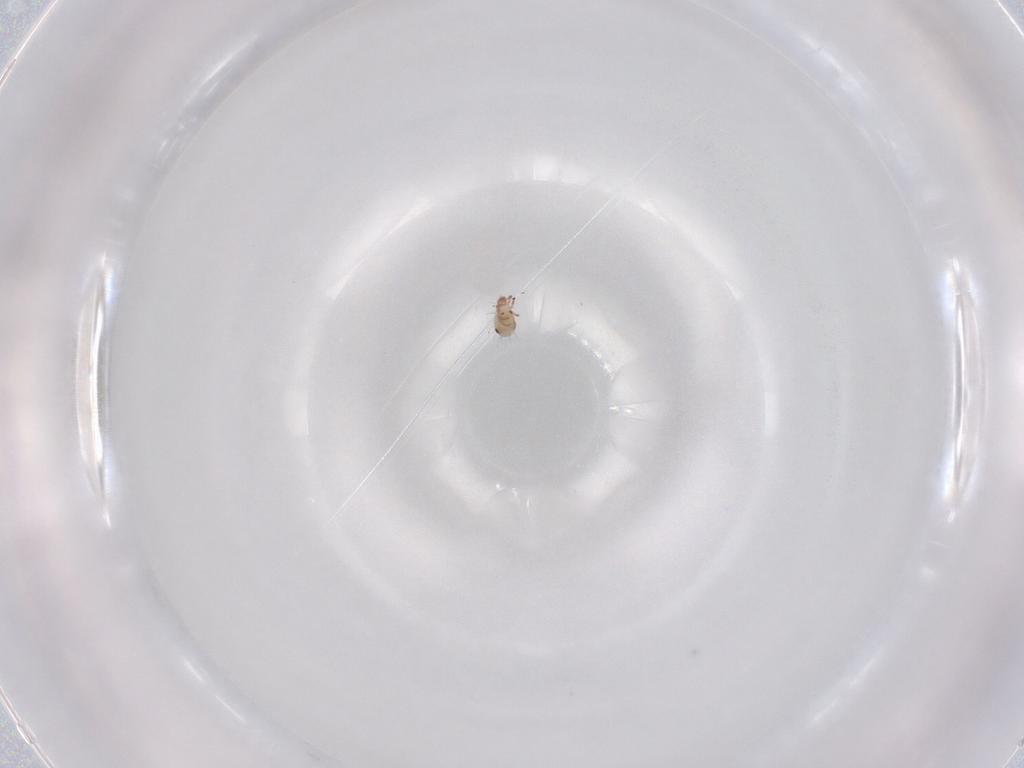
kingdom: Animalia
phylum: Arthropoda
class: Arachnida
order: Sarcoptiformes
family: Humerobatidae
